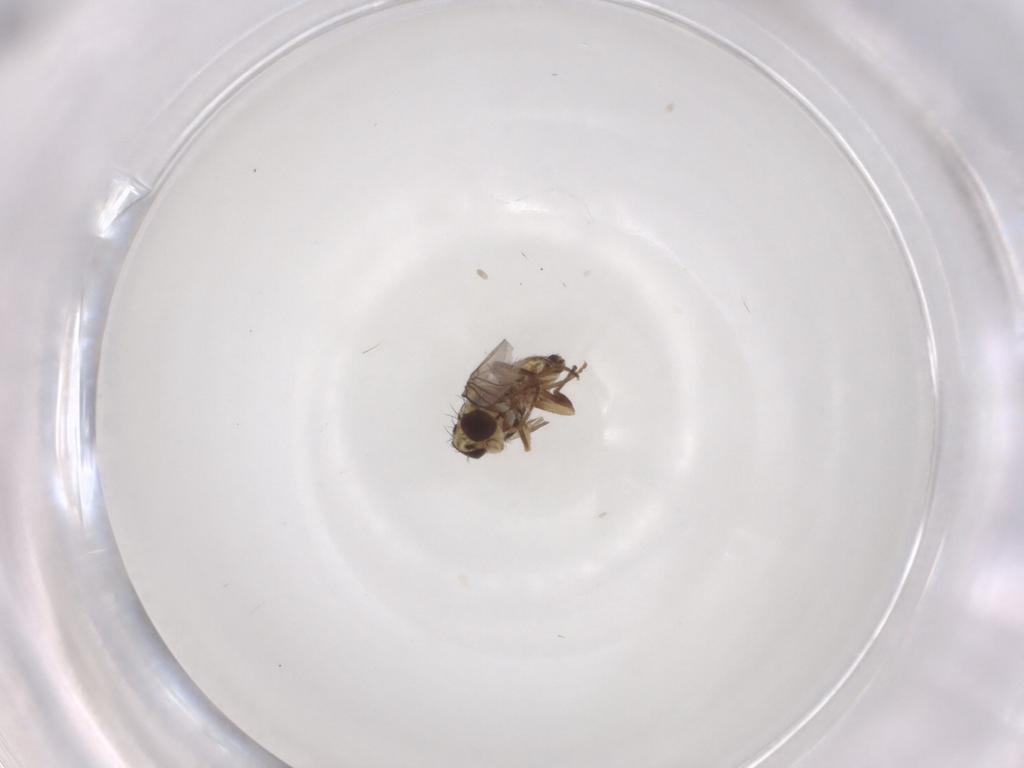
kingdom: Animalia
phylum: Arthropoda
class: Insecta
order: Diptera
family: Agromyzidae
